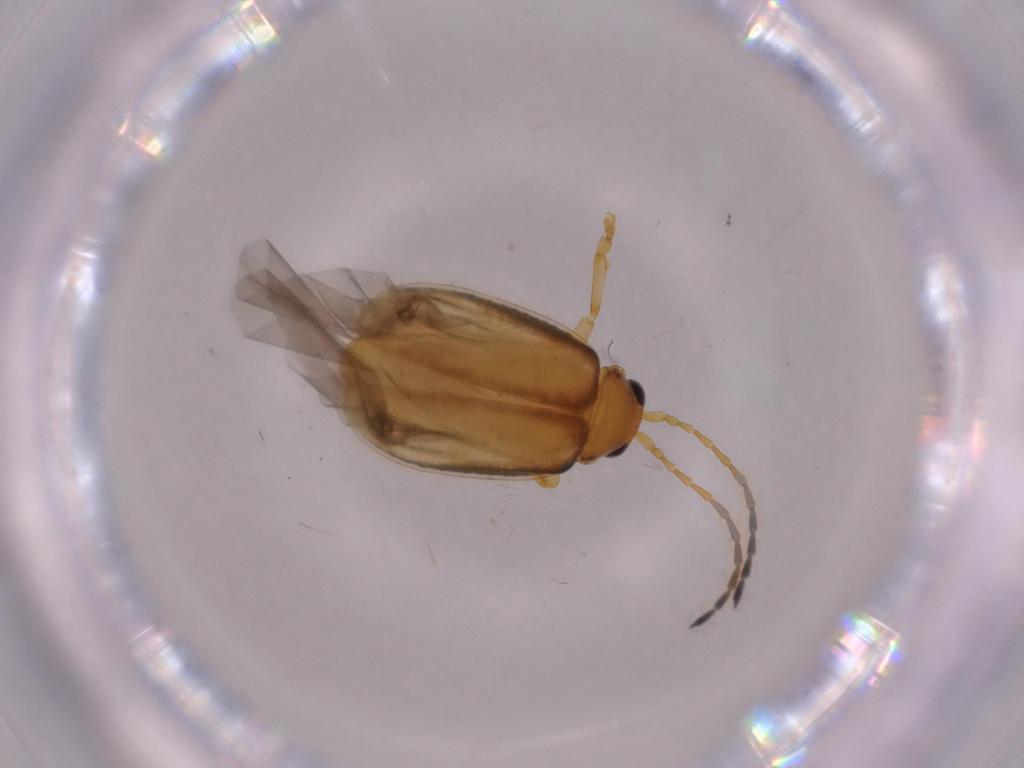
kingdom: Animalia
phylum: Arthropoda
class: Insecta
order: Coleoptera
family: Chrysomelidae
